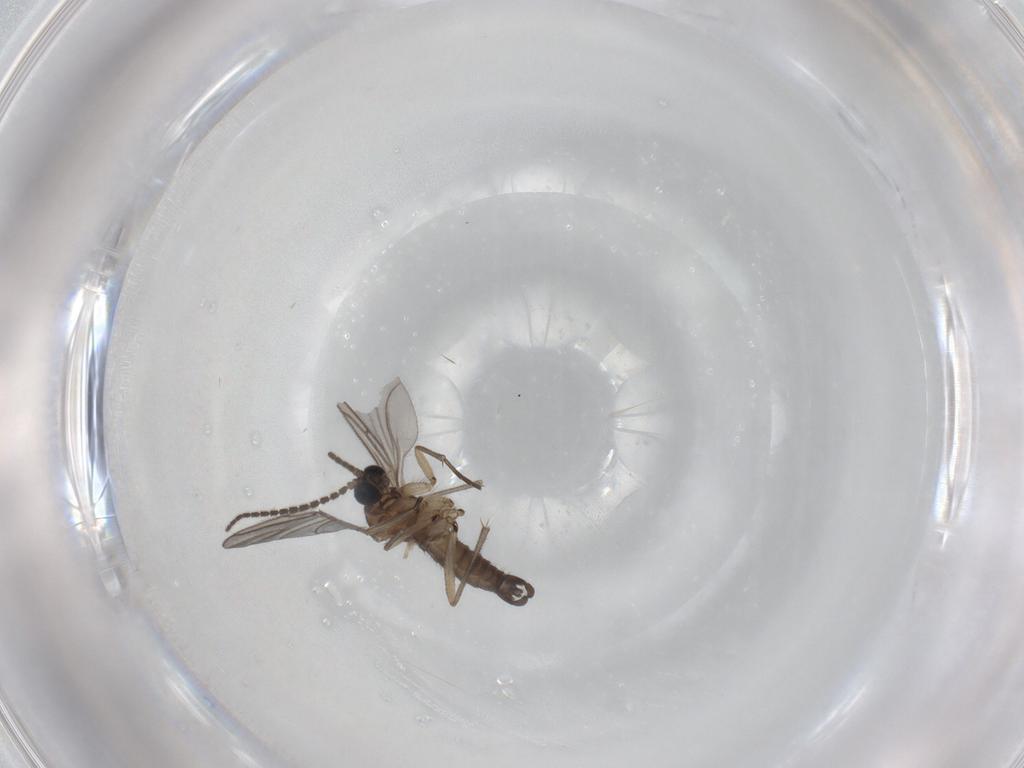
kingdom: Animalia
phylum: Arthropoda
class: Insecta
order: Diptera
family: Cecidomyiidae
